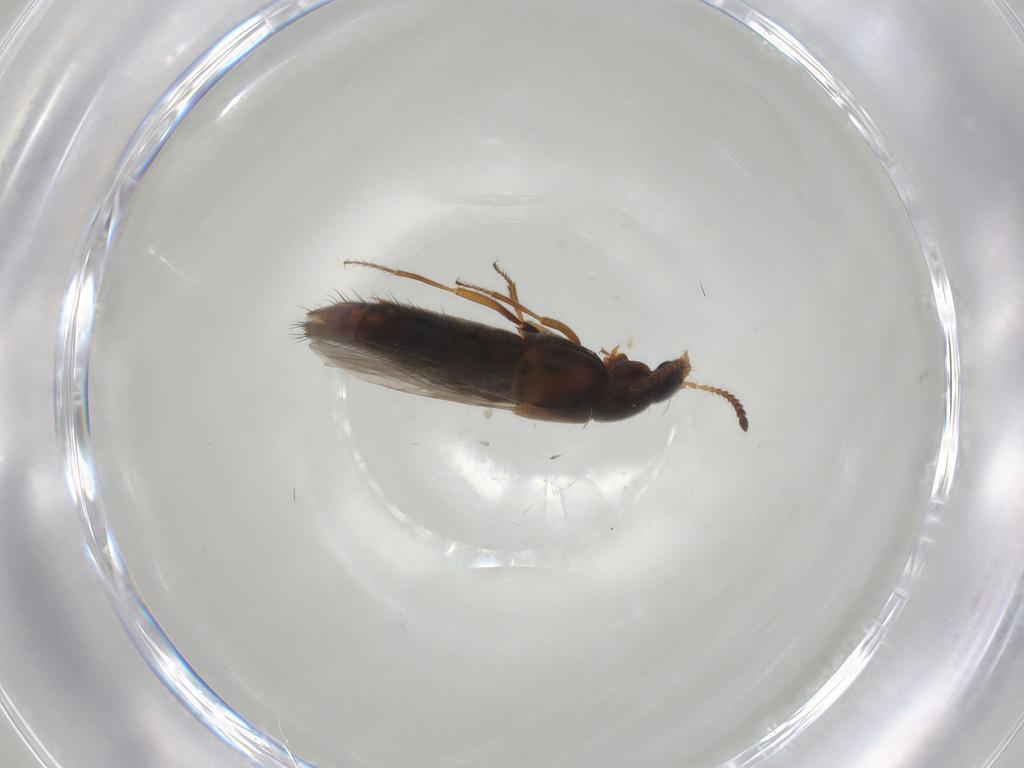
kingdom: Animalia
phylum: Arthropoda
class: Insecta
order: Coleoptera
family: Staphylinidae
